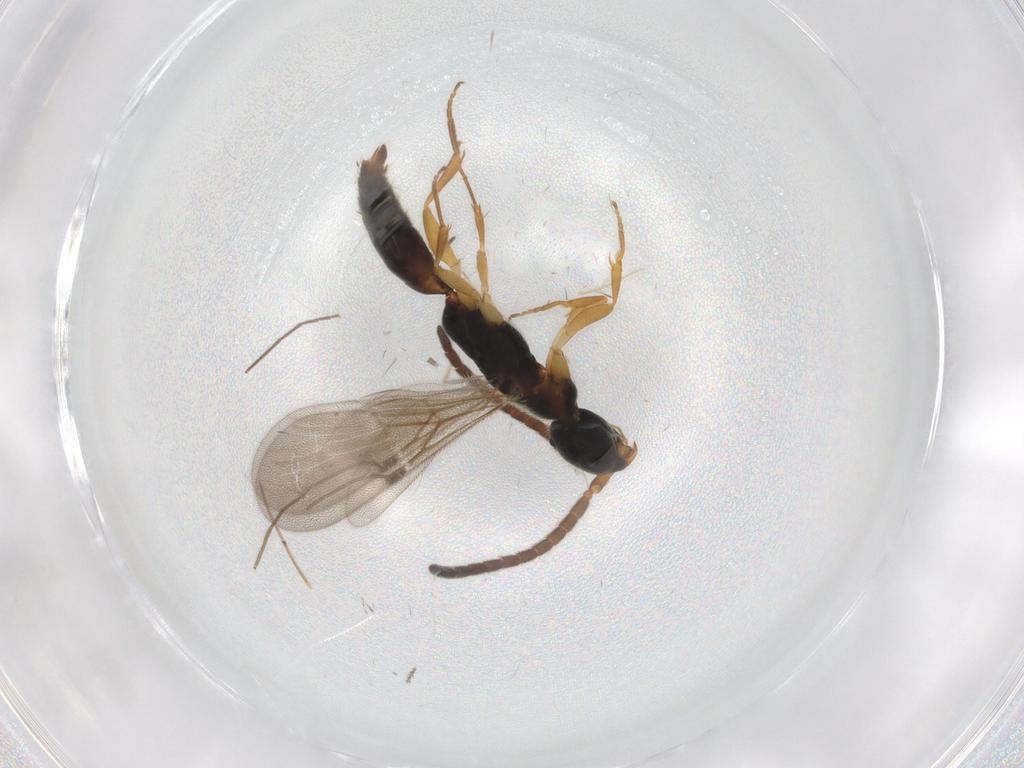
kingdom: Animalia
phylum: Arthropoda
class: Insecta
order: Hymenoptera
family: Bethylidae
